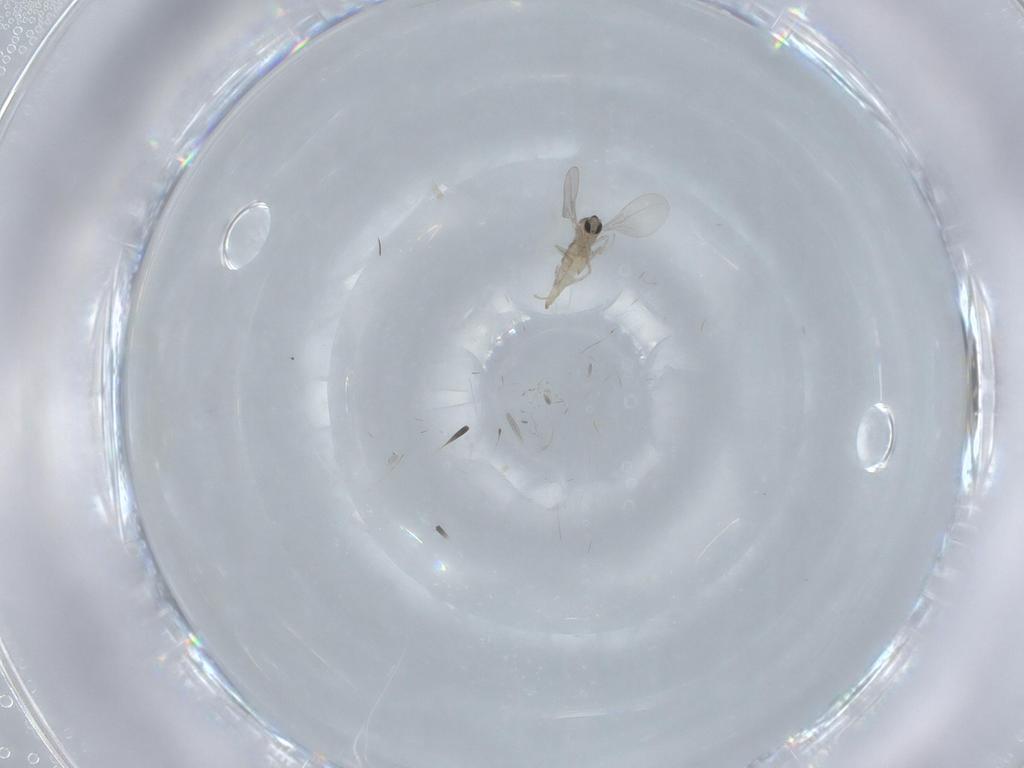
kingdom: Animalia
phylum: Arthropoda
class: Insecta
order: Diptera
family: Cecidomyiidae
